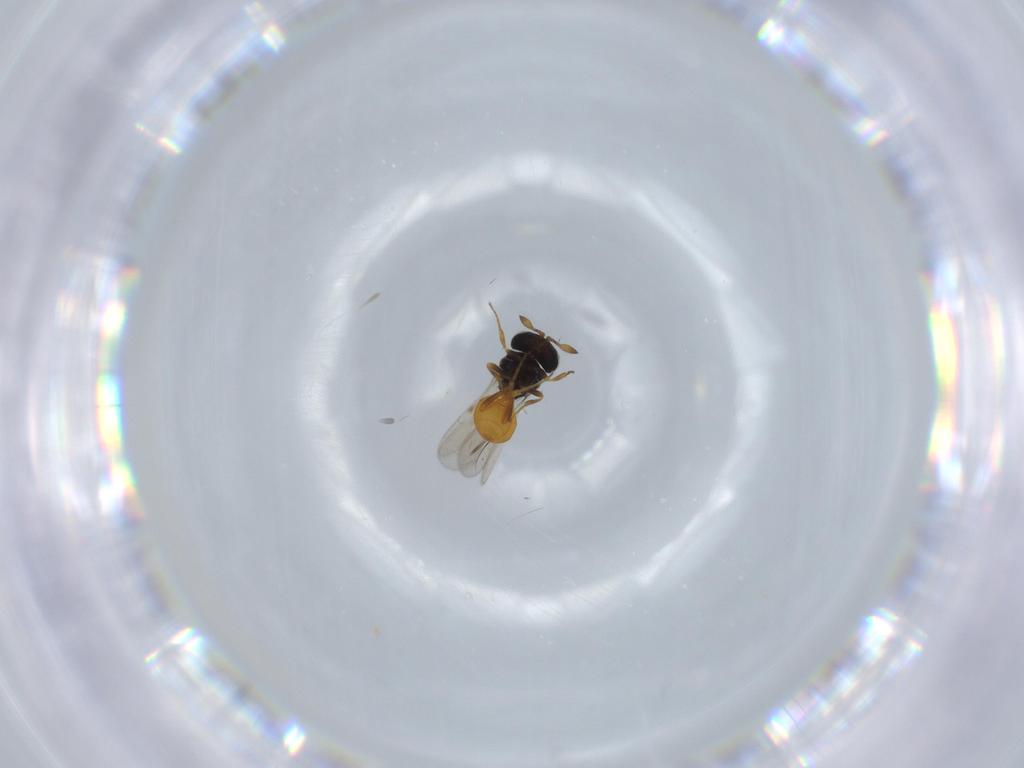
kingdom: Animalia
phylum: Arthropoda
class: Insecta
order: Hymenoptera
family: Scelionidae
